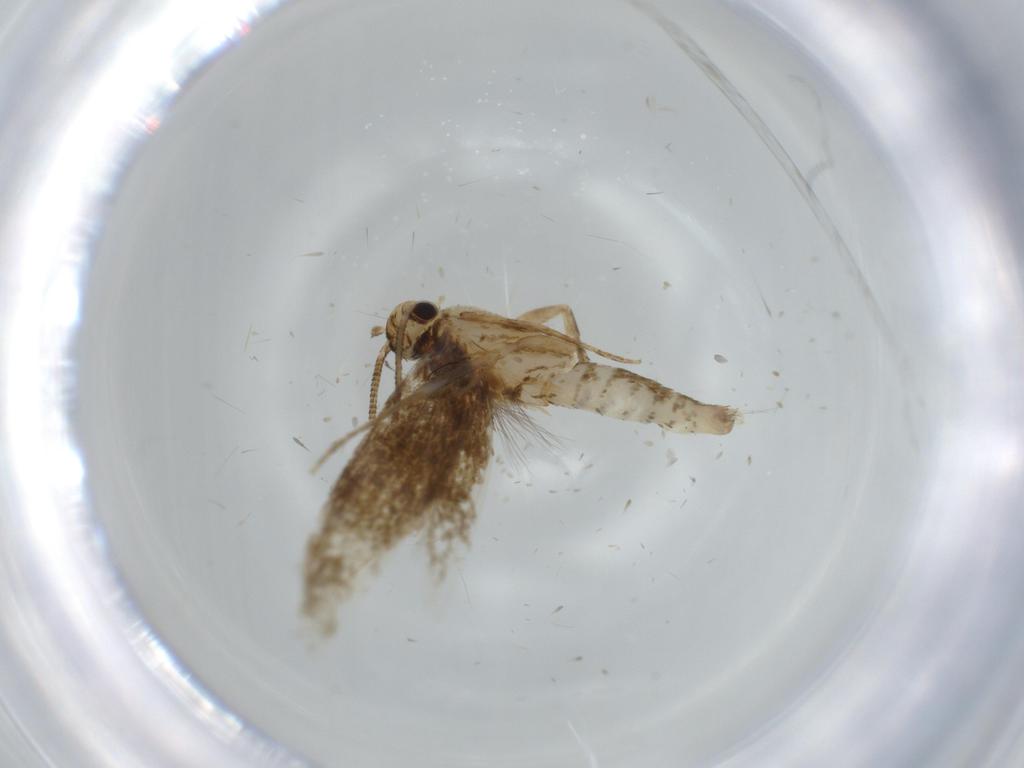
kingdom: Animalia
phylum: Arthropoda
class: Insecta
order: Lepidoptera
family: Tineidae
